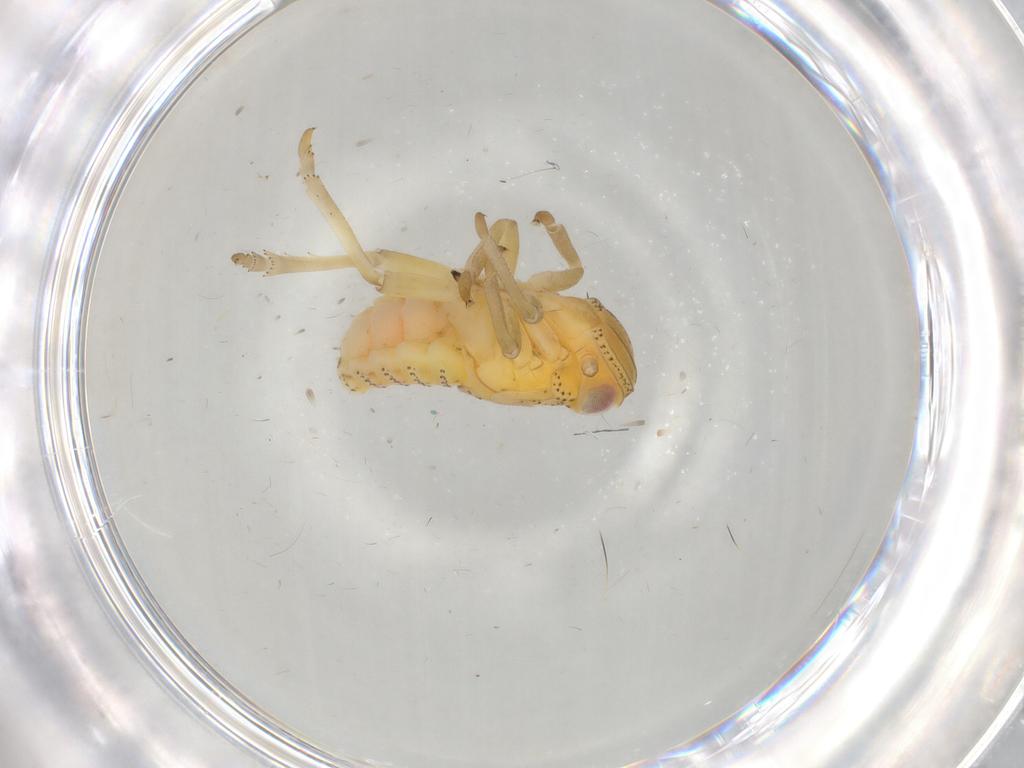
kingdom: Animalia
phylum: Arthropoda
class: Insecta
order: Hemiptera
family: Tropiduchidae
